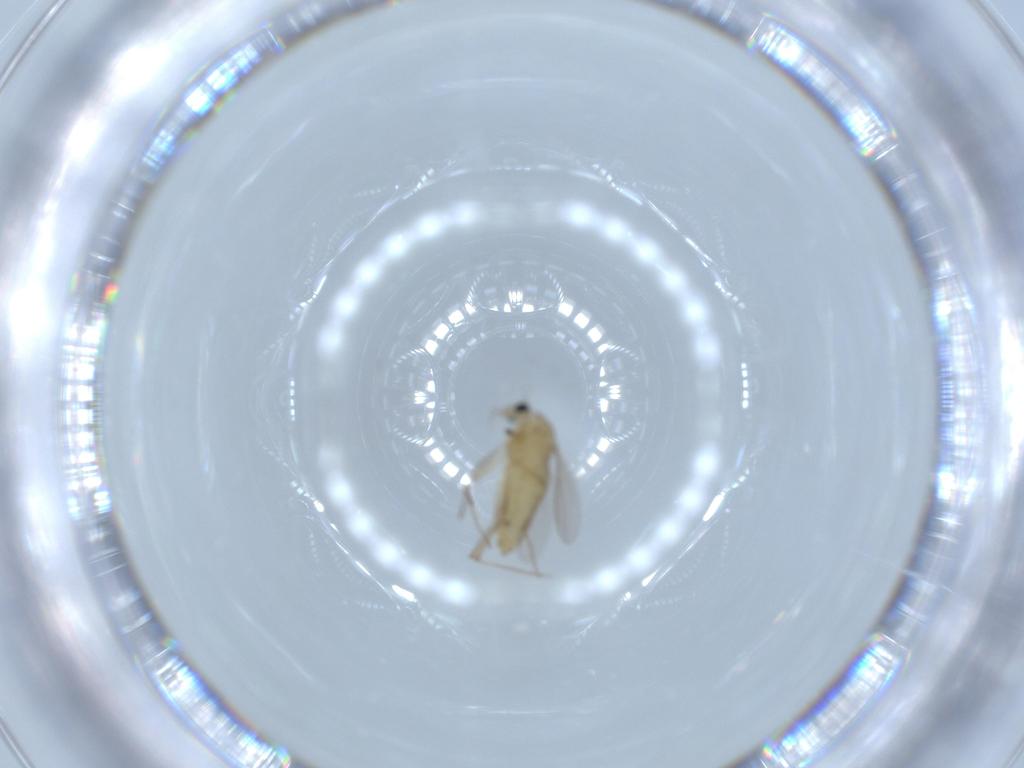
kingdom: Animalia
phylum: Arthropoda
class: Insecta
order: Diptera
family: Chironomidae
